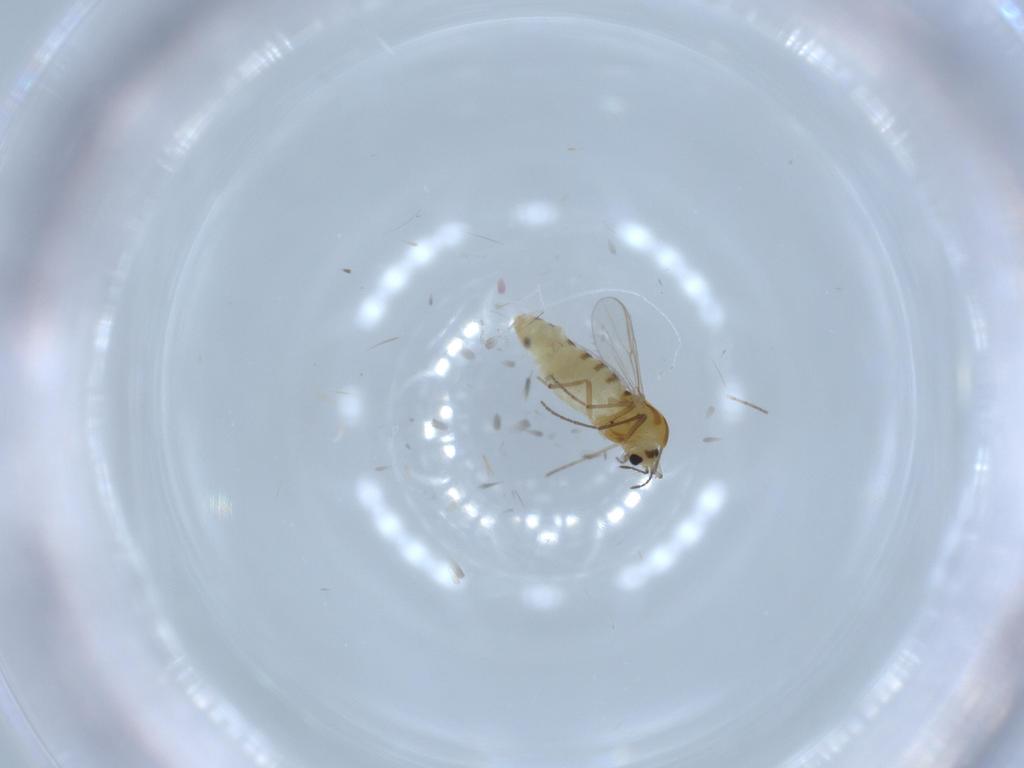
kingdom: Animalia
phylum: Arthropoda
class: Insecta
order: Diptera
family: Chironomidae
